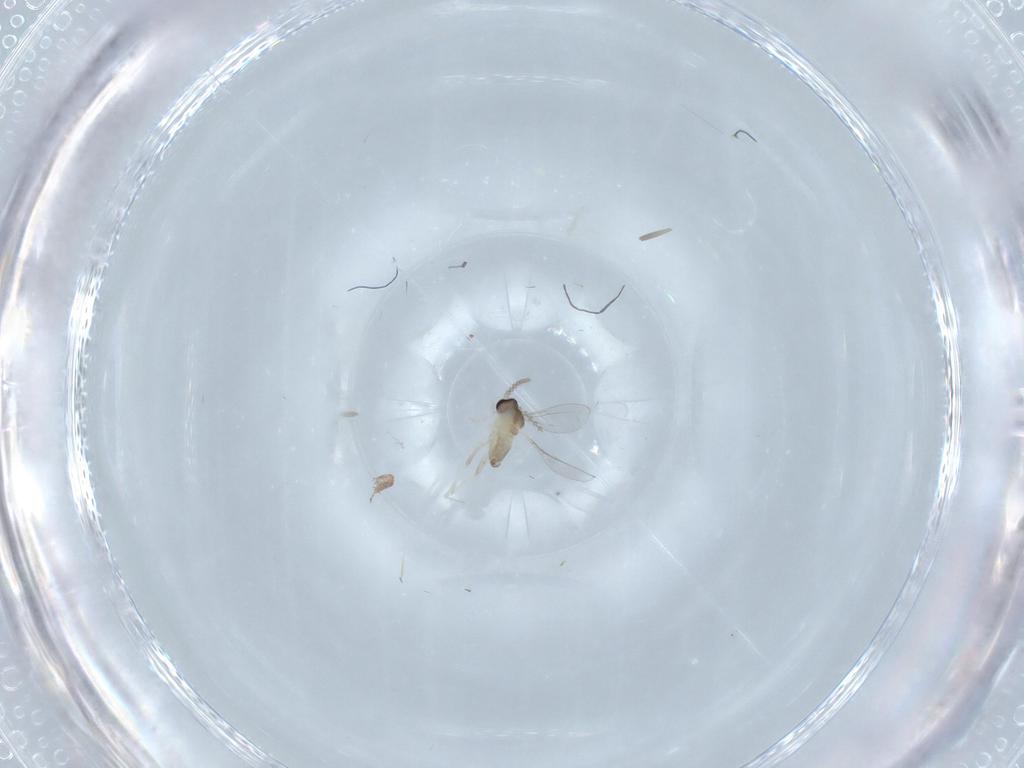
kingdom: Animalia
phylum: Arthropoda
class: Insecta
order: Diptera
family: Cecidomyiidae
